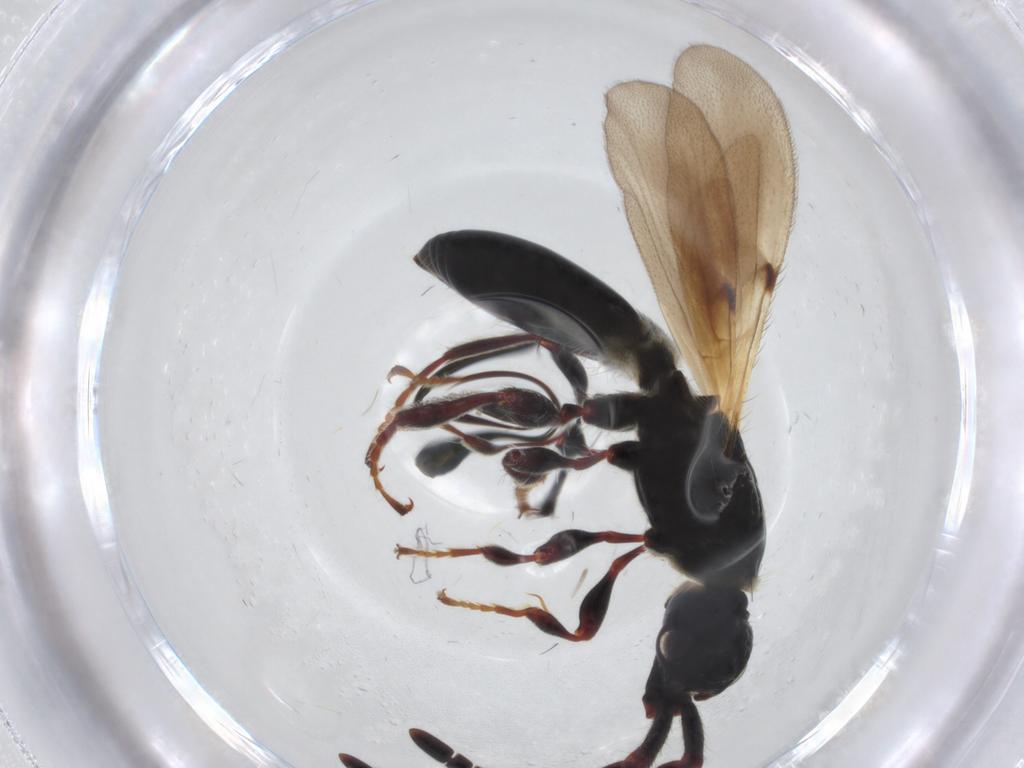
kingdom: Animalia
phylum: Arthropoda
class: Insecta
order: Hymenoptera
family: Diapriidae
